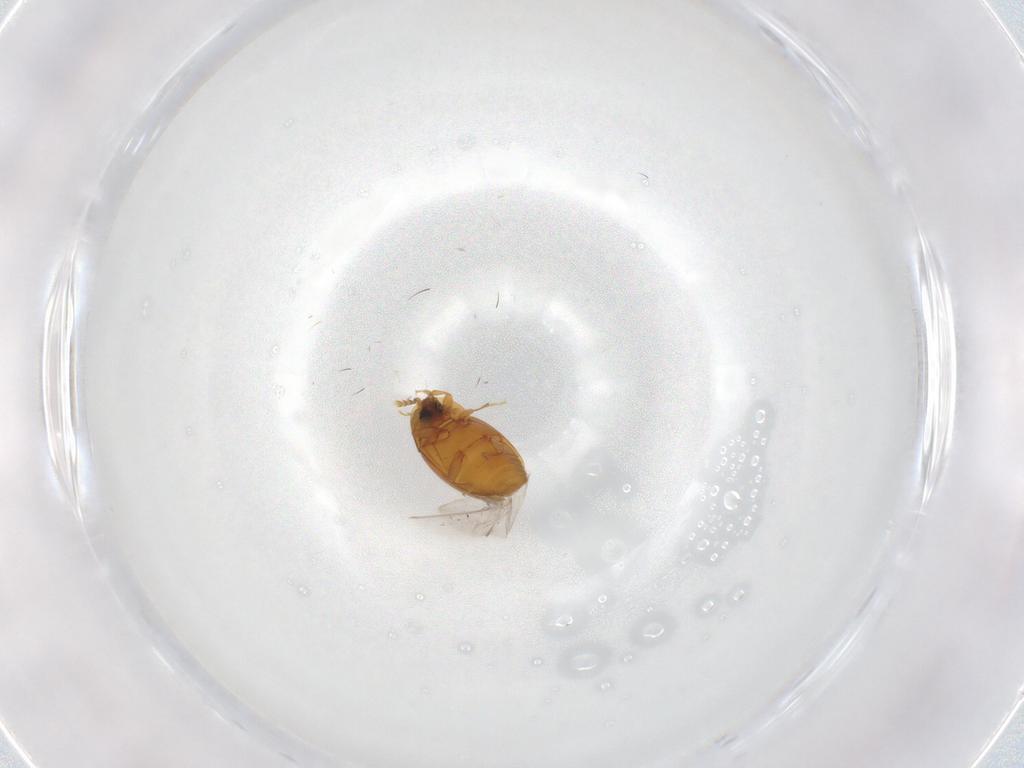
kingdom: Animalia
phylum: Arthropoda
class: Insecta
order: Coleoptera
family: Corylophidae
